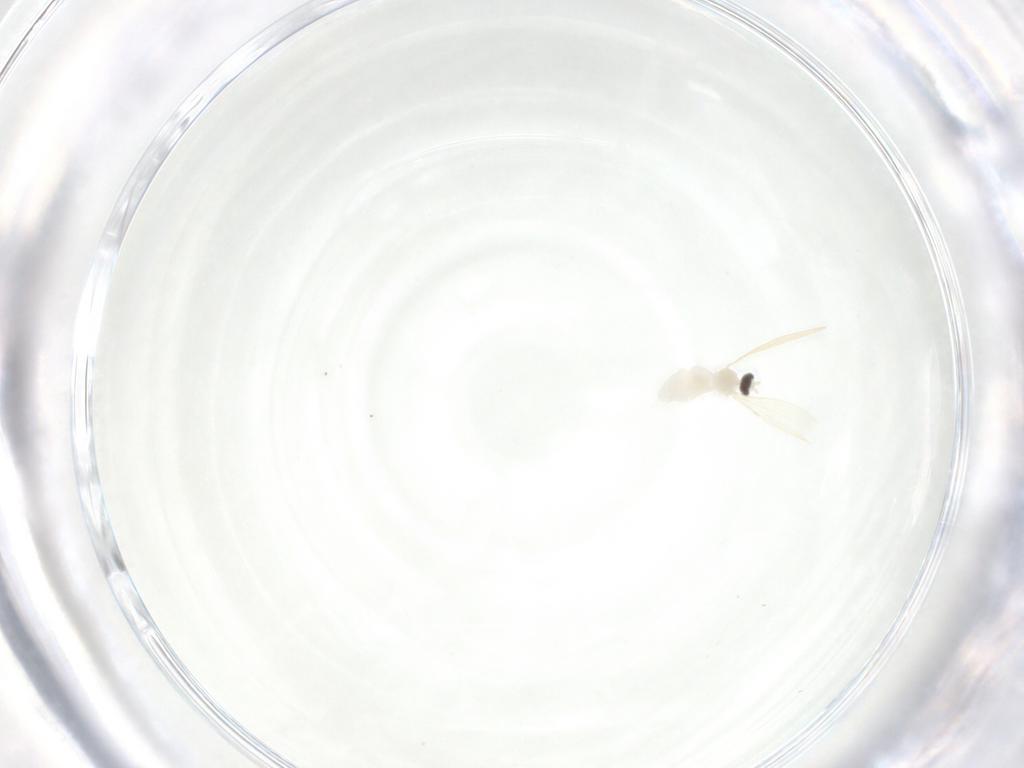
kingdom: Animalia
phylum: Arthropoda
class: Insecta
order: Diptera
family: Cecidomyiidae
